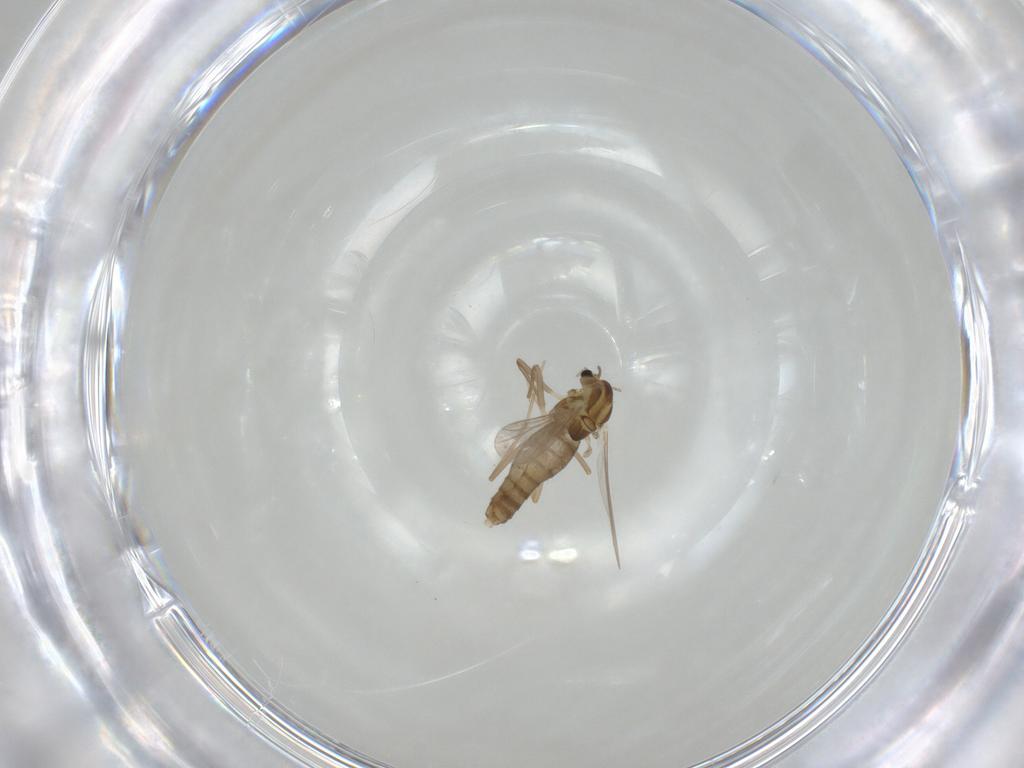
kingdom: Animalia
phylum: Arthropoda
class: Insecta
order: Diptera
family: Chironomidae
